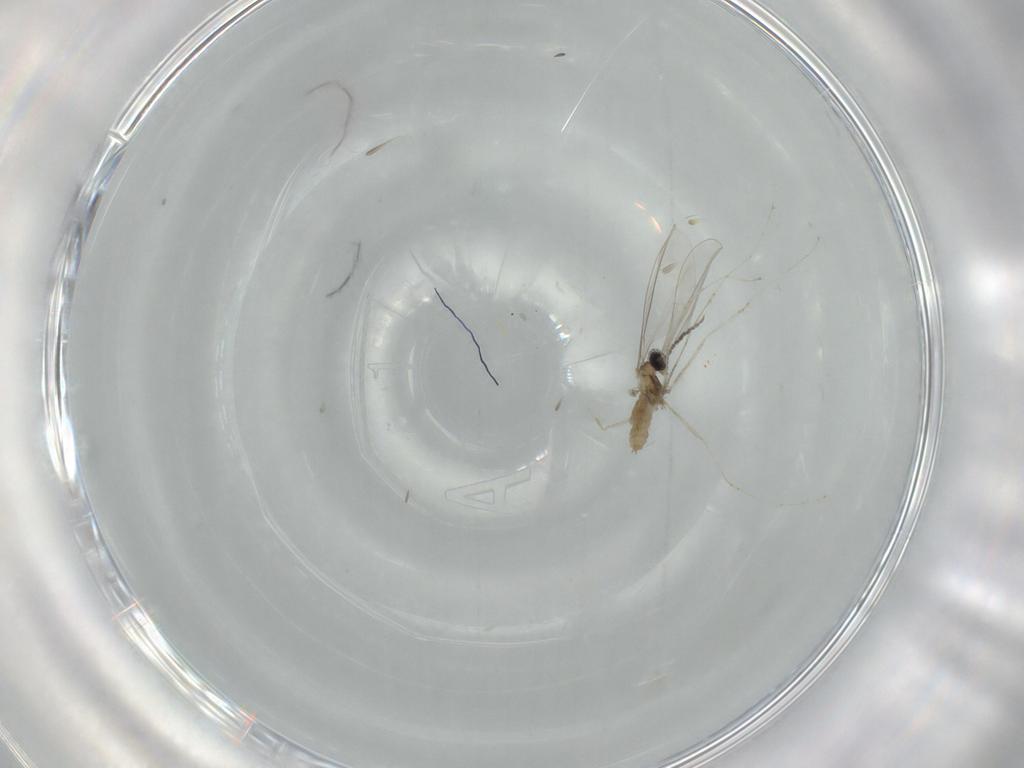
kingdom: Animalia
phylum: Arthropoda
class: Insecta
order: Diptera
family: Cecidomyiidae
